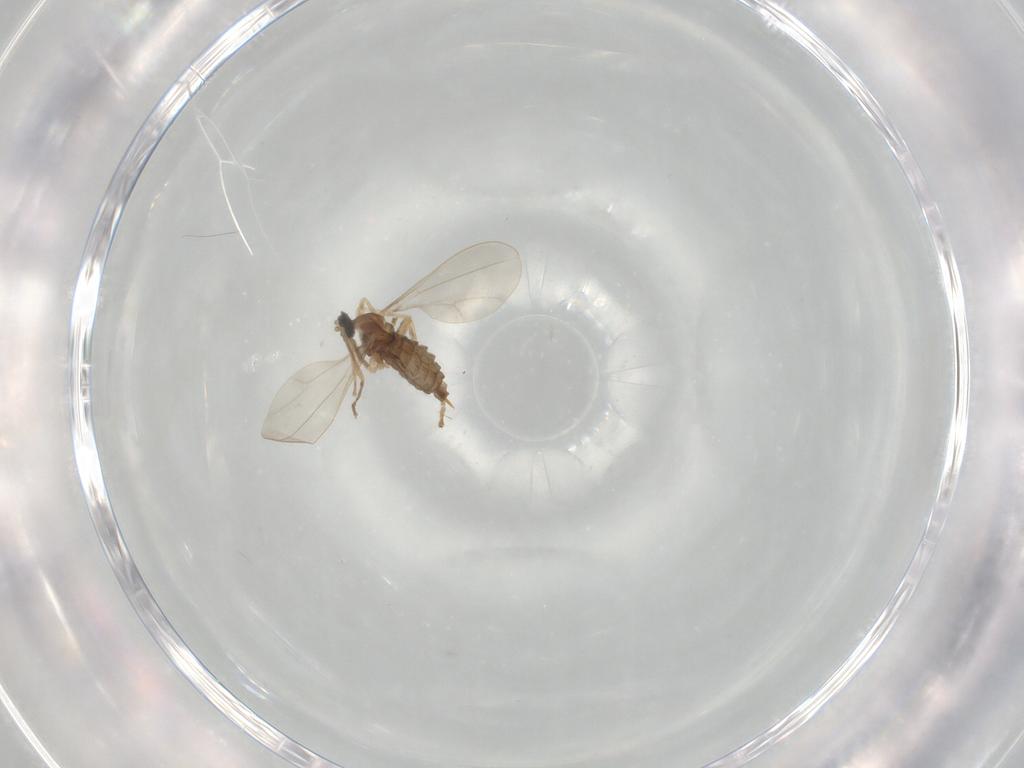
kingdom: Animalia
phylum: Arthropoda
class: Insecta
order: Diptera
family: Cecidomyiidae
